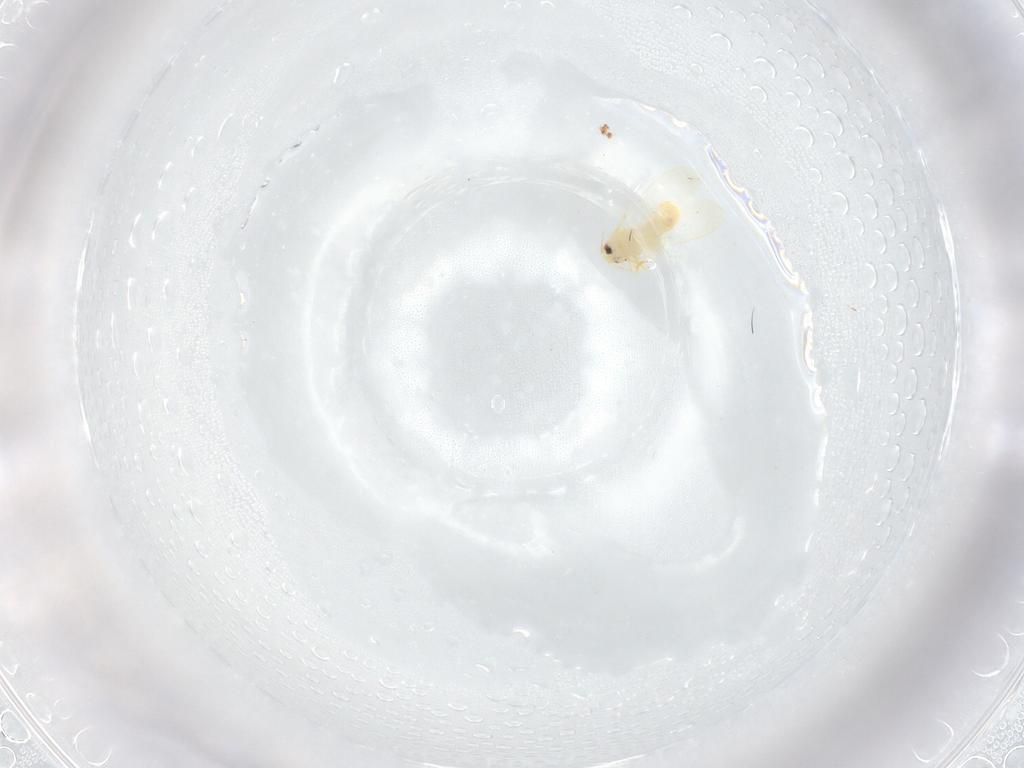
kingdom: Animalia
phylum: Arthropoda
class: Insecta
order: Hemiptera
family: Aleyrodidae
